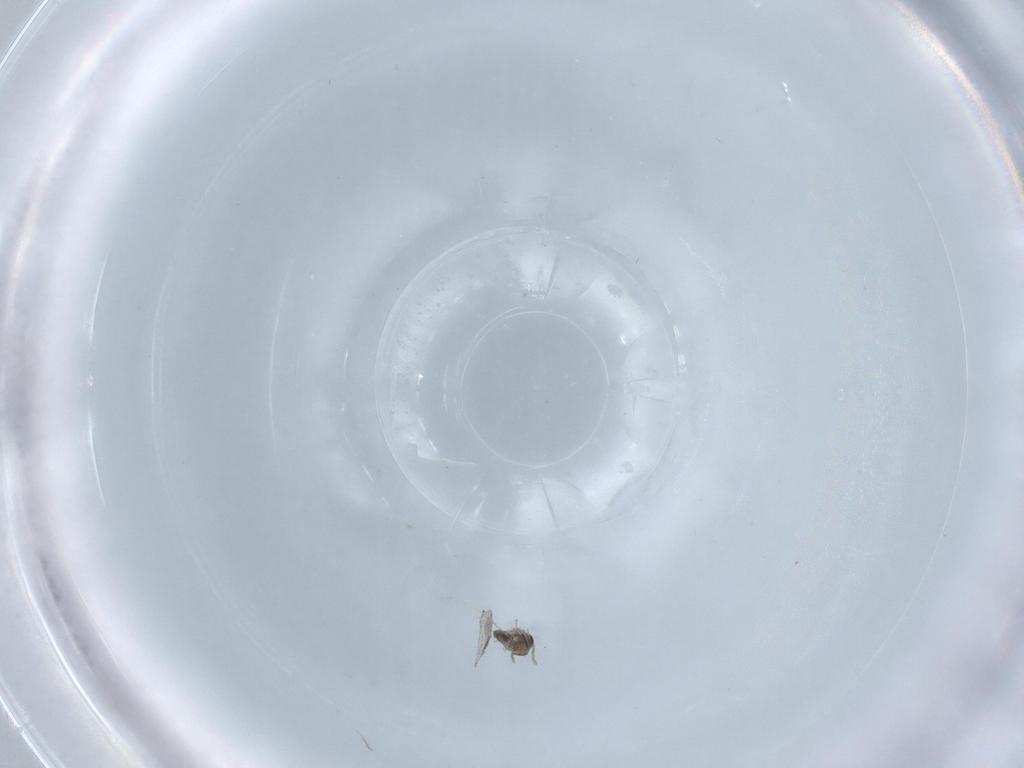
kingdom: Animalia
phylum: Arthropoda
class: Insecta
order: Diptera
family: Cecidomyiidae
